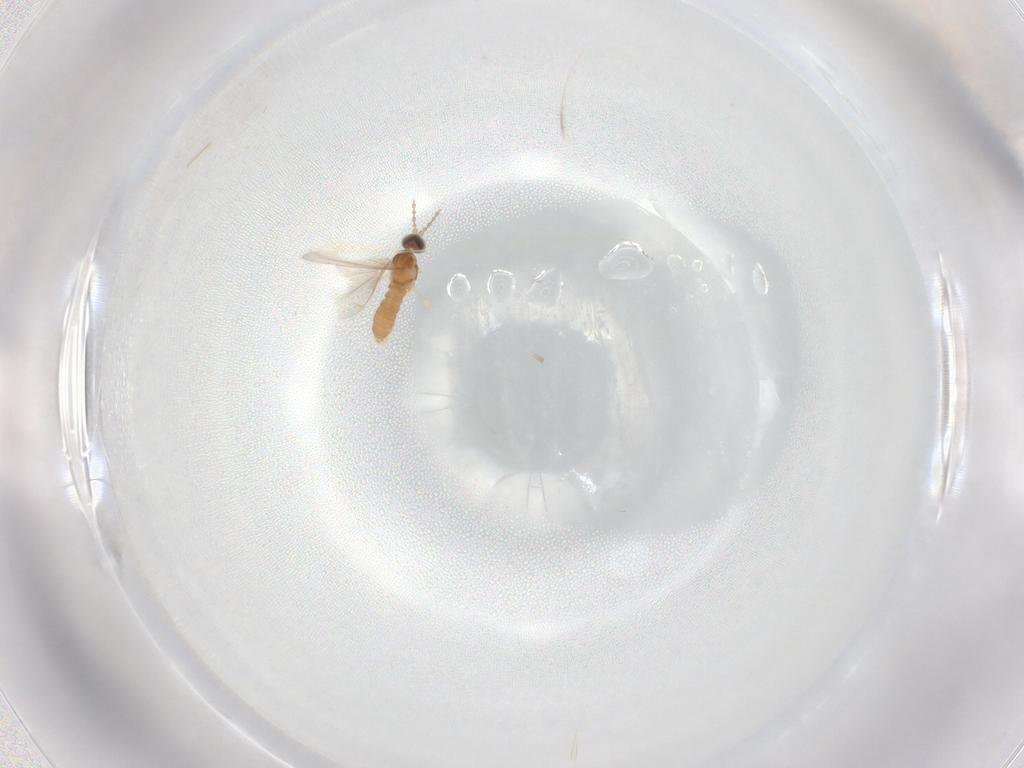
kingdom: Animalia
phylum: Arthropoda
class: Insecta
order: Diptera
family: Cecidomyiidae
